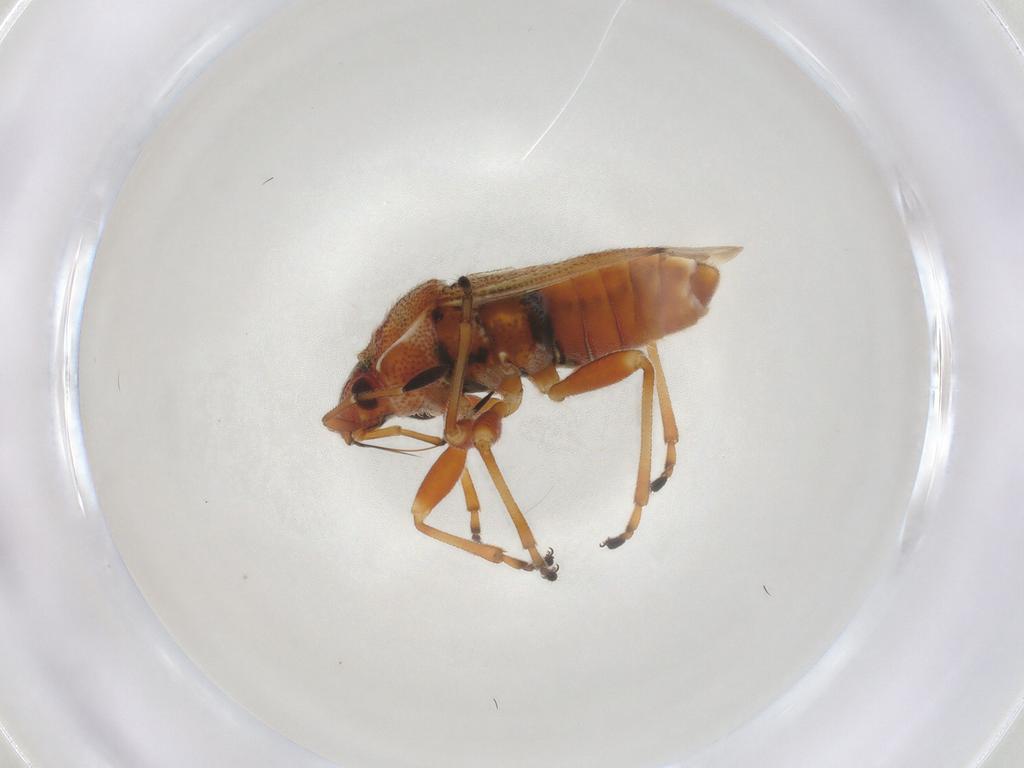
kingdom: Animalia
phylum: Arthropoda
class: Insecta
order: Hemiptera
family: Lygaeidae
